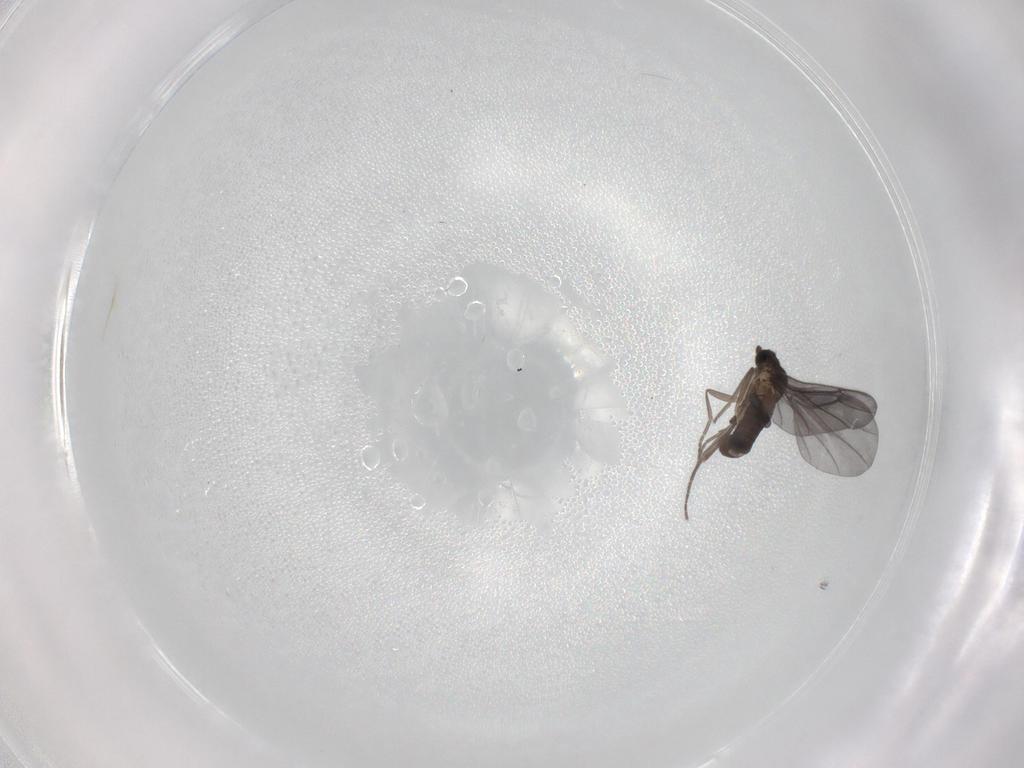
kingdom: Animalia
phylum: Arthropoda
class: Insecta
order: Diptera
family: Phoridae
